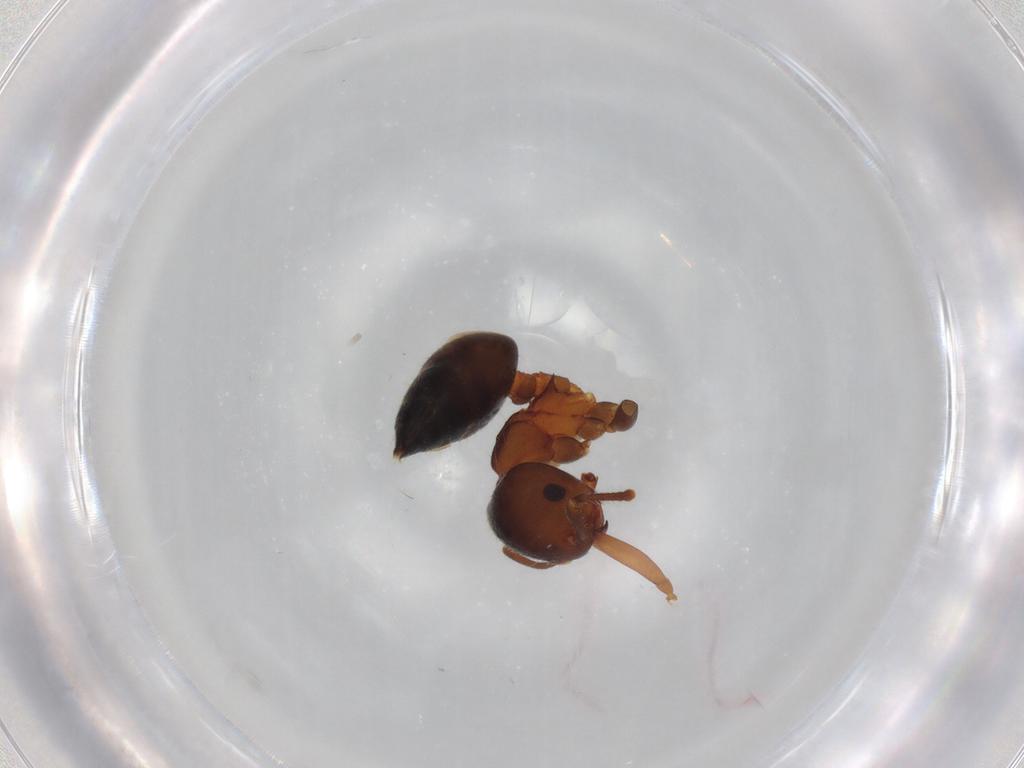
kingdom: Animalia
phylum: Arthropoda
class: Insecta
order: Hymenoptera
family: Formicidae
